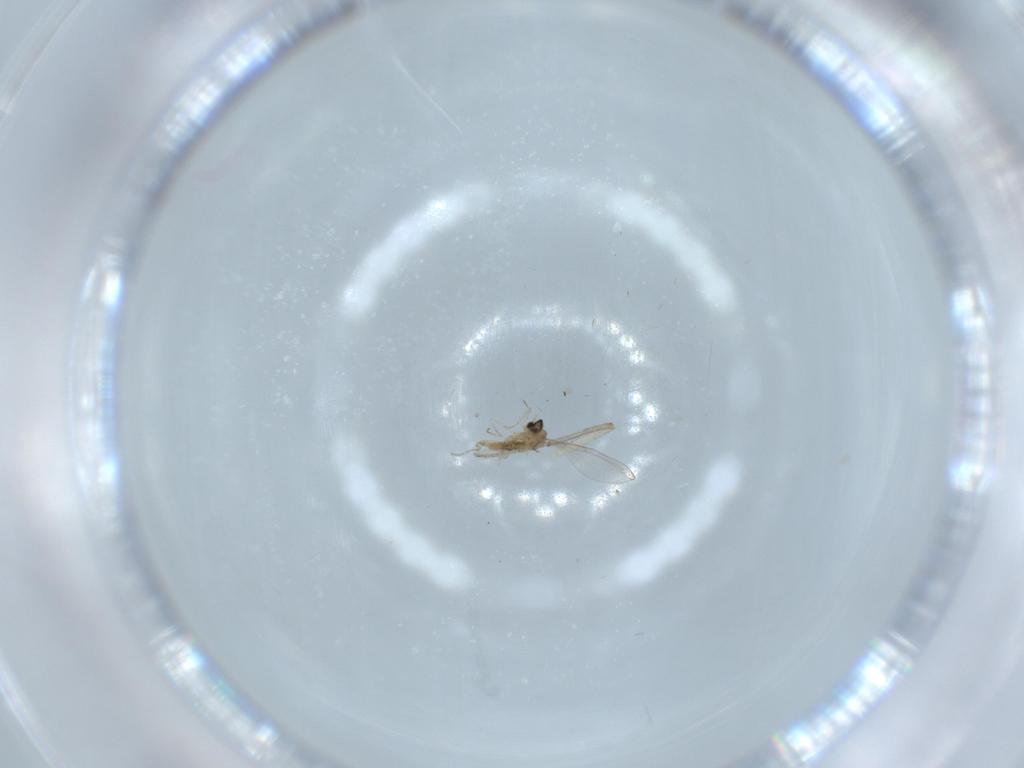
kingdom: Animalia
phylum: Arthropoda
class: Insecta
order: Diptera
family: Cecidomyiidae
